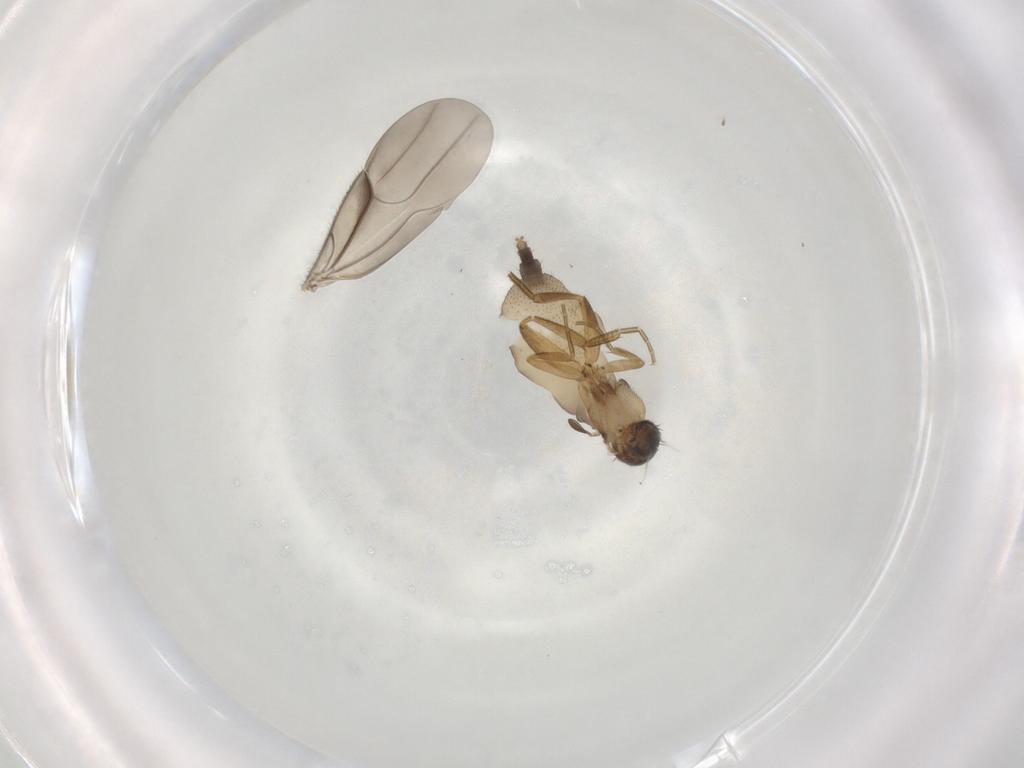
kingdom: Animalia
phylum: Arthropoda
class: Insecta
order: Diptera
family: Phoridae
